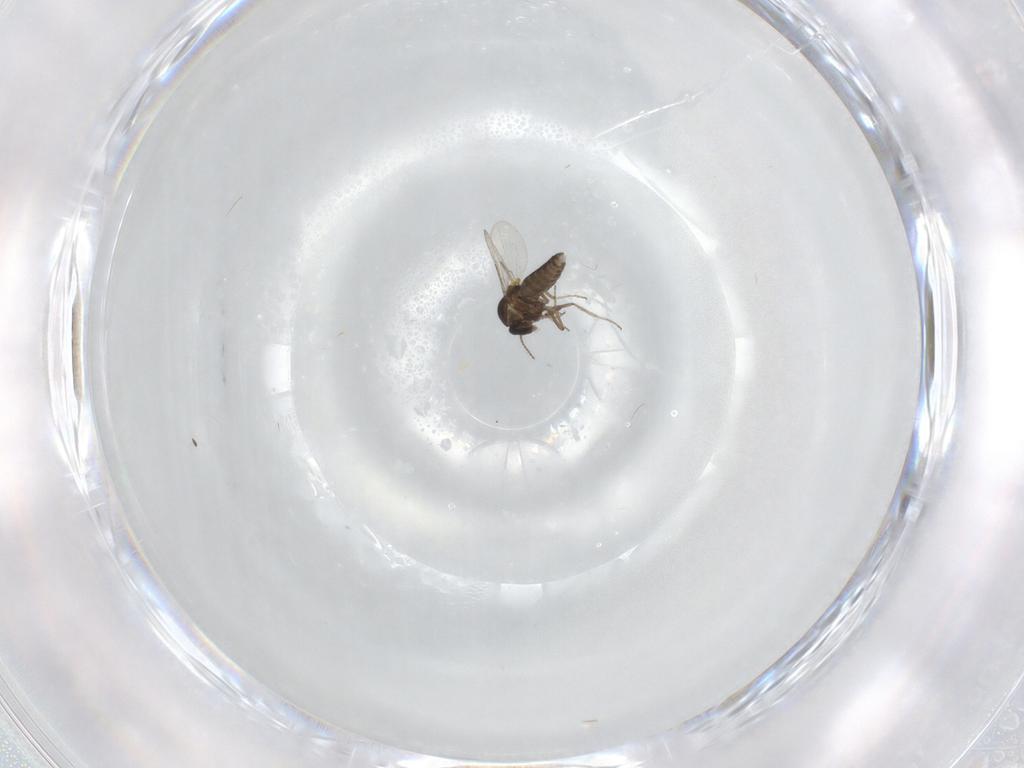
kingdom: Animalia
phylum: Arthropoda
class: Insecta
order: Diptera
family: Ceratopogonidae
